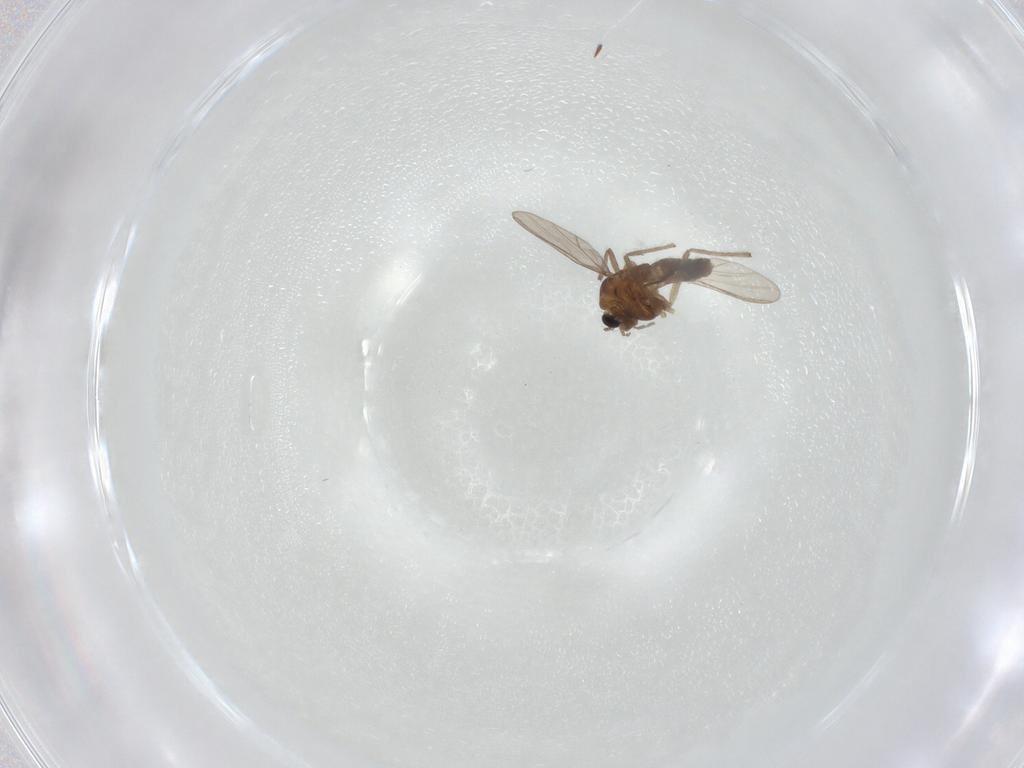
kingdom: Animalia
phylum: Arthropoda
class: Insecta
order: Diptera
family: Chironomidae
